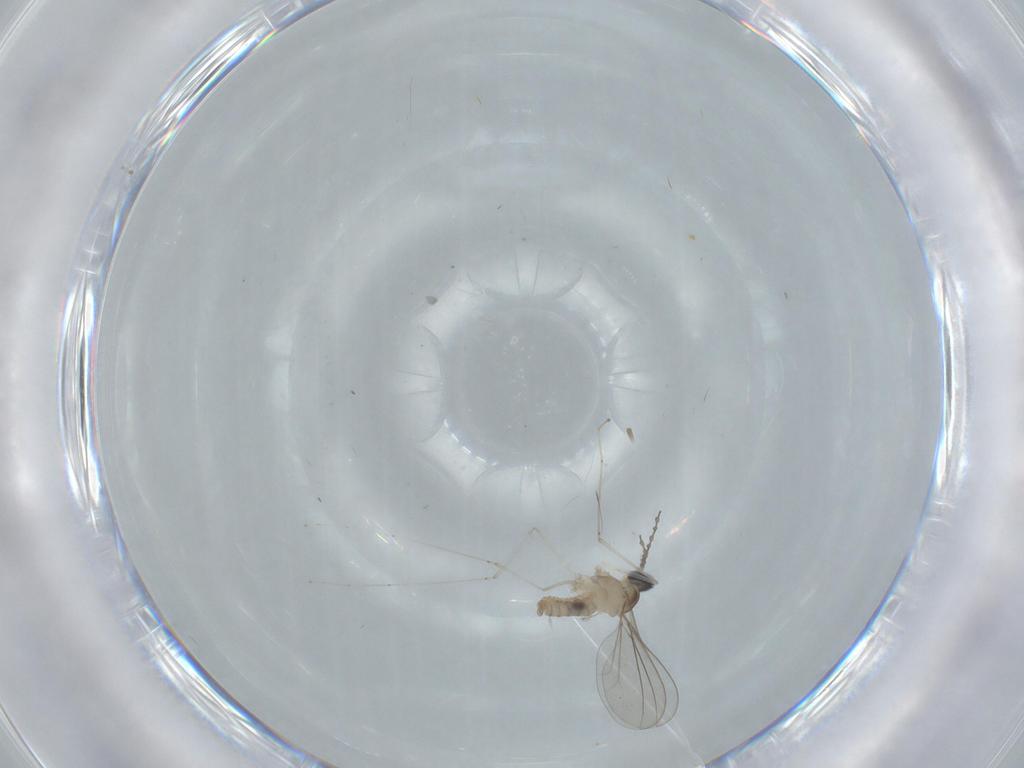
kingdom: Animalia
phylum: Arthropoda
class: Insecta
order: Diptera
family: Cecidomyiidae
